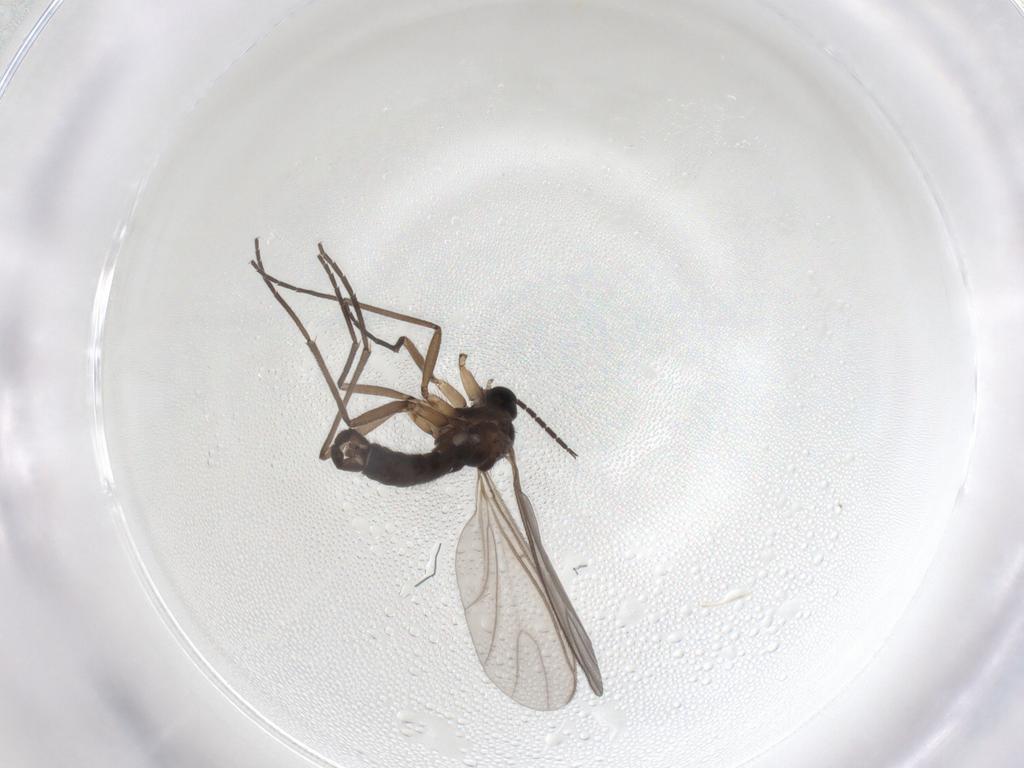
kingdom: Animalia
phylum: Arthropoda
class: Insecta
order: Diptera
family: Sciaridae
